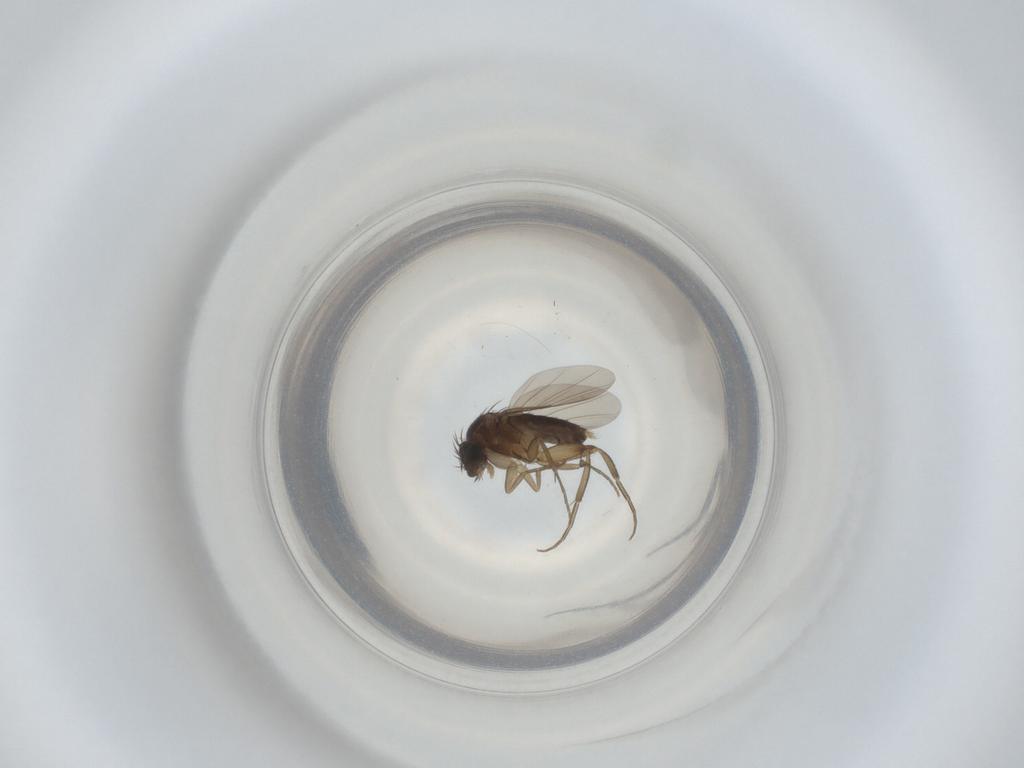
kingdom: Animalia
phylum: Arthropoda
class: Insecta
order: Diptera
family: Phoridae
